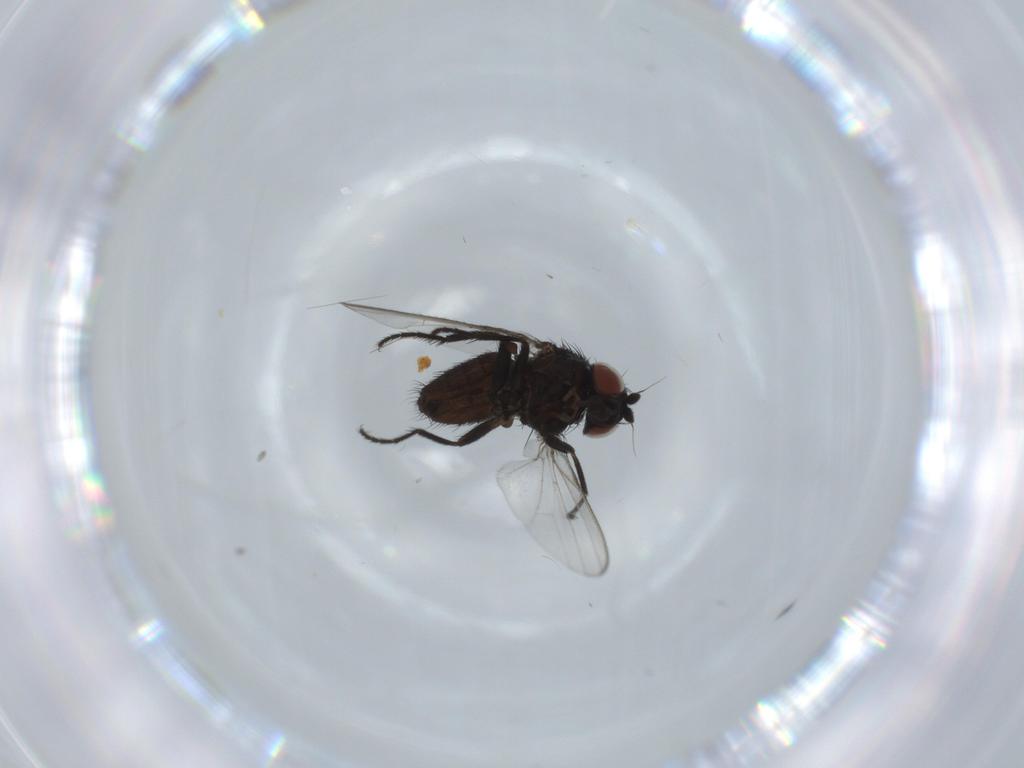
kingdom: Animalia
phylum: Arthropoda
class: Insecta
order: Diptera
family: Milichiidae
